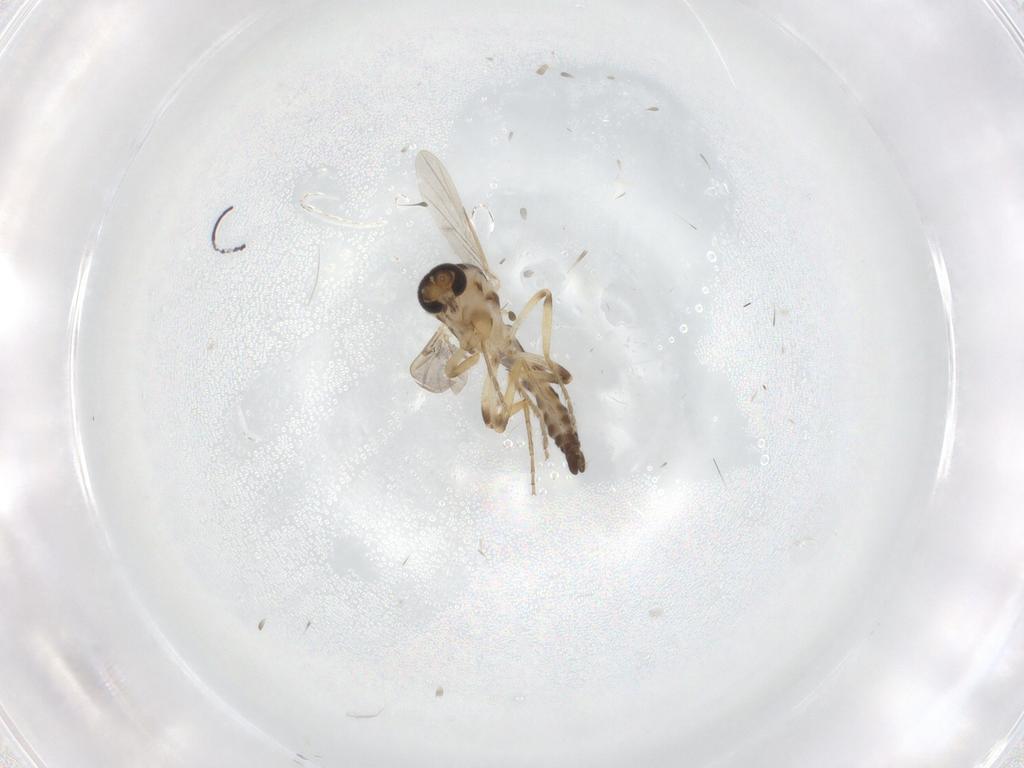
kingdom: Animalia
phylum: Arthropoda
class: Insecta
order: Diptera
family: Ceratopogonidae
